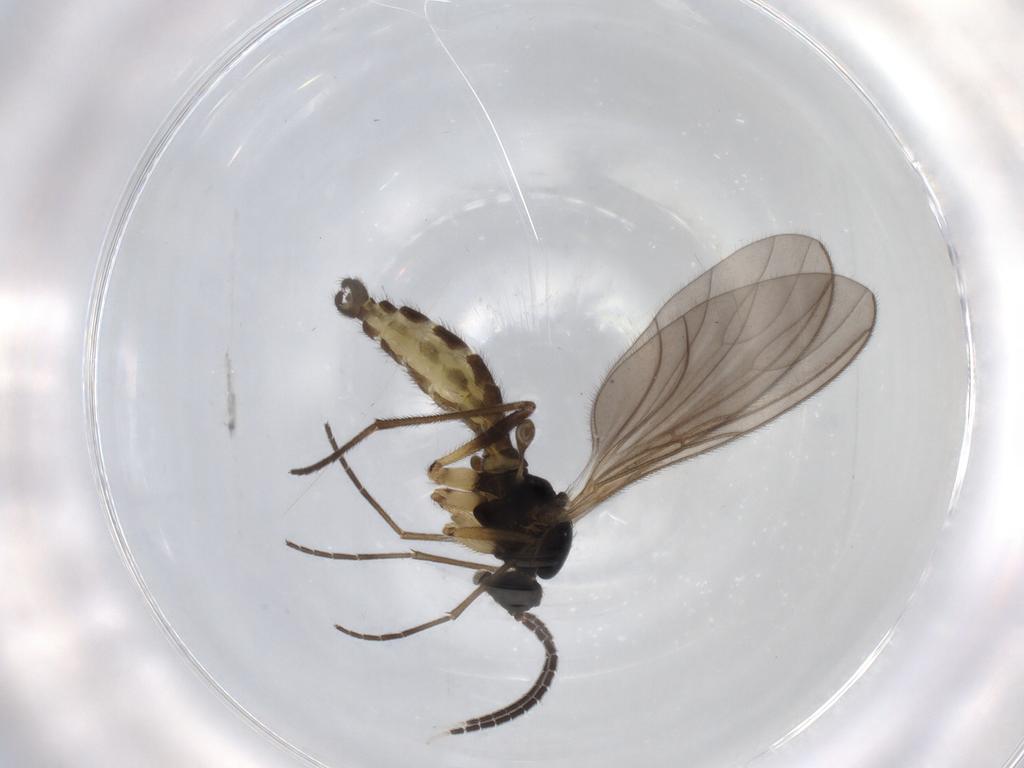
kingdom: Animalia
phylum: Arthropoda
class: Insecta
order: Diptera
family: Sciaridae
